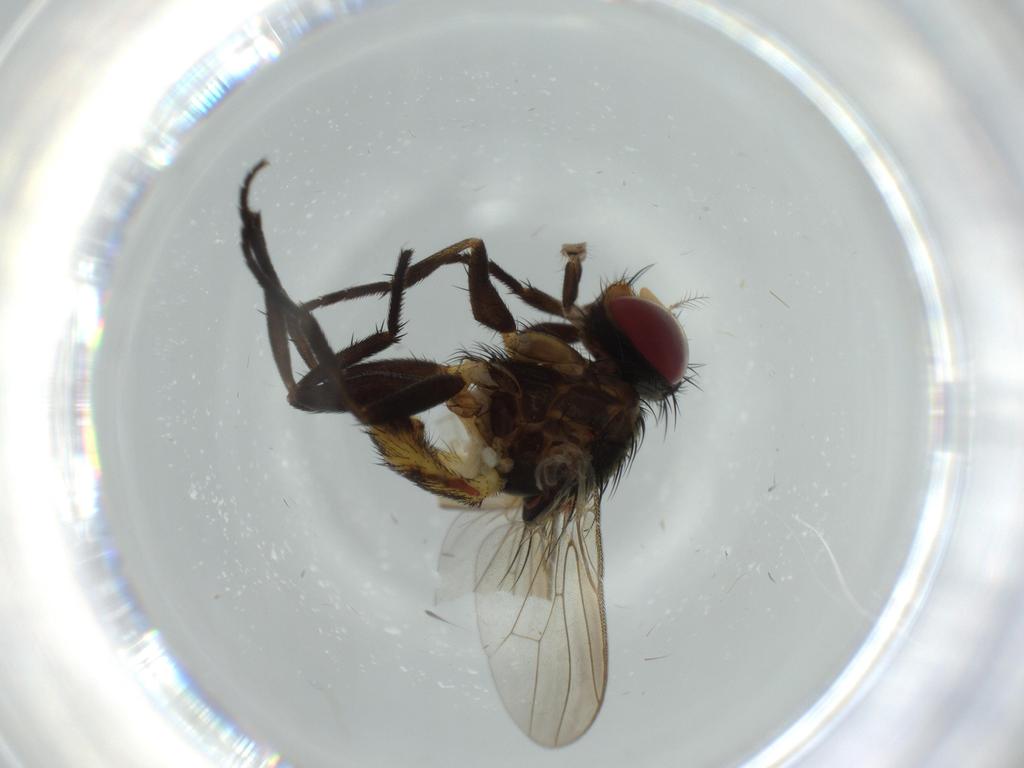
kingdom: Animalia
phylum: Arthropoda
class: Insecta
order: Diptera
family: Anthomyiidae
